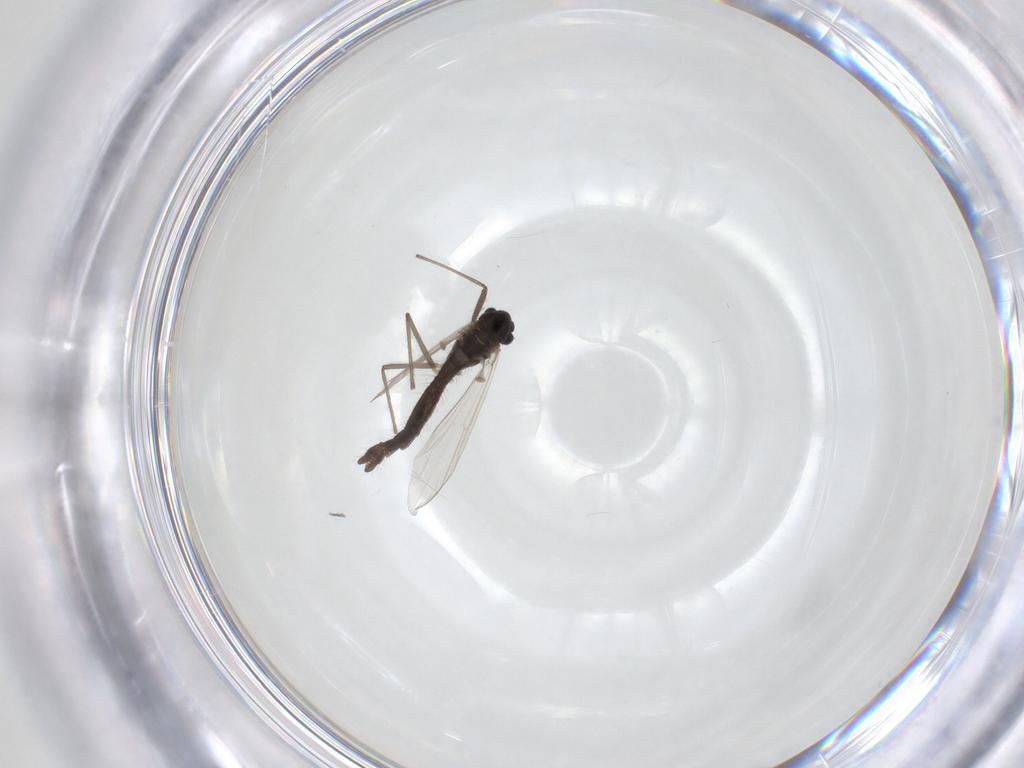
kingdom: Animalia
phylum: Arthropoda
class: Insecta
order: Diptera
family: Chironomidae
